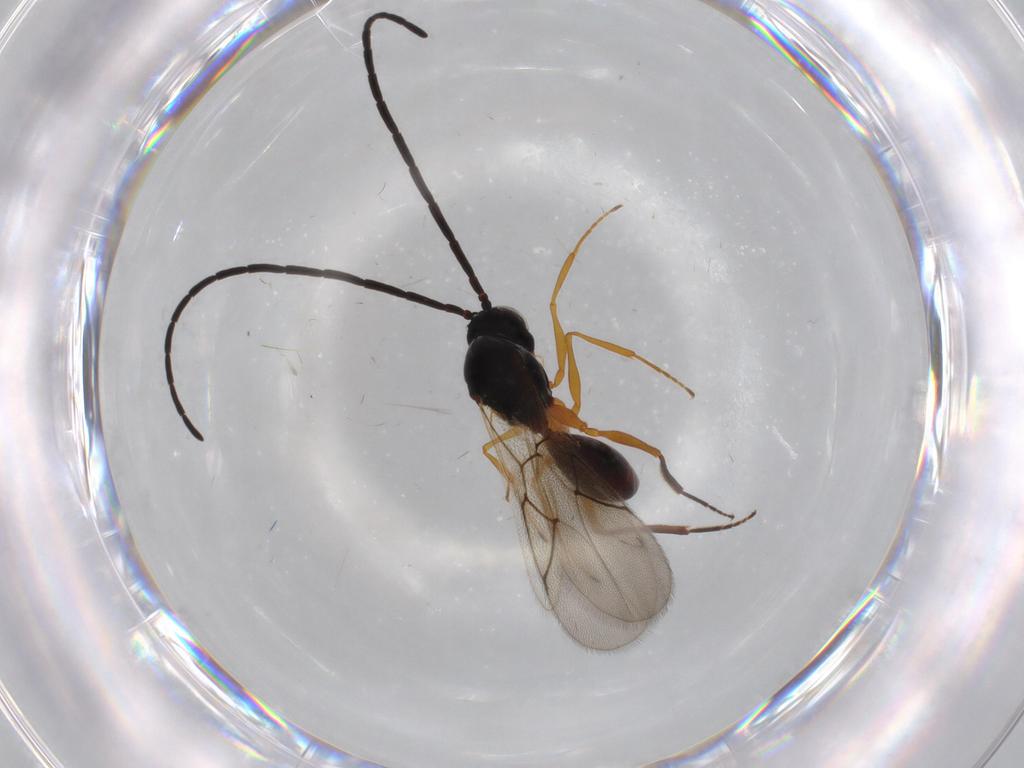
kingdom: Animalia
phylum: Arthropoda
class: Insecta
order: Hymenoptera
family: Figitidae
